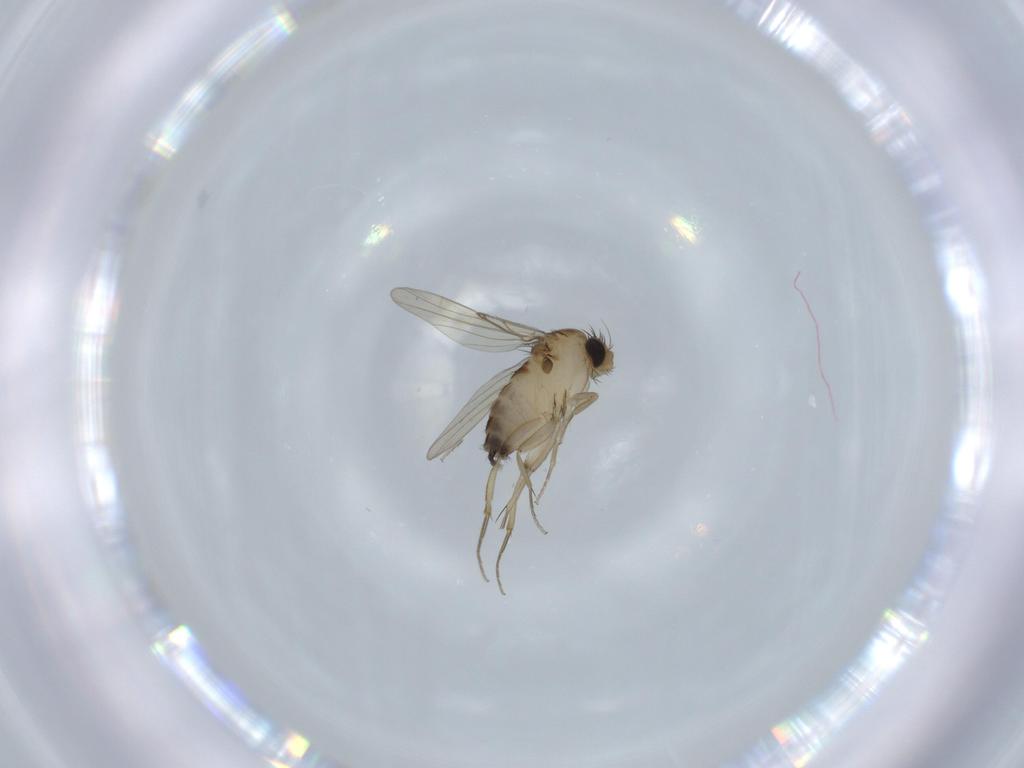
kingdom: Animalia
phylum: Arthropoda
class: Insecta
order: Diptera
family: Phoridae
